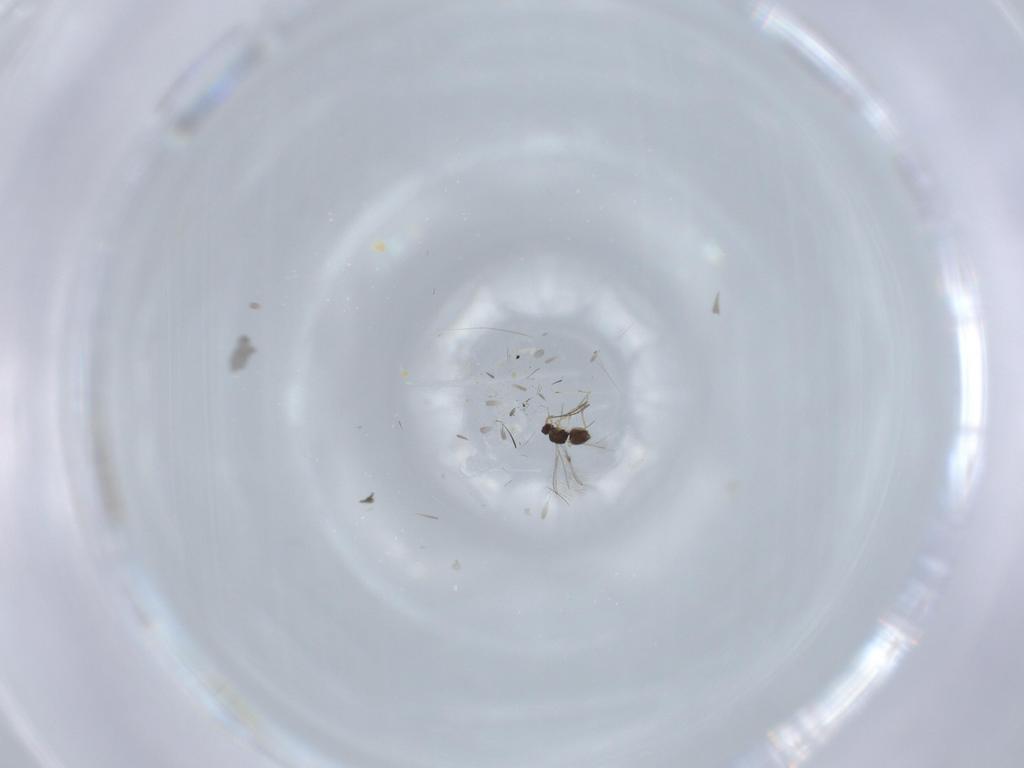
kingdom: Animalia
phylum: Arthropoda
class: Insecta
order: Hymenoptera
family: Mymaridae
